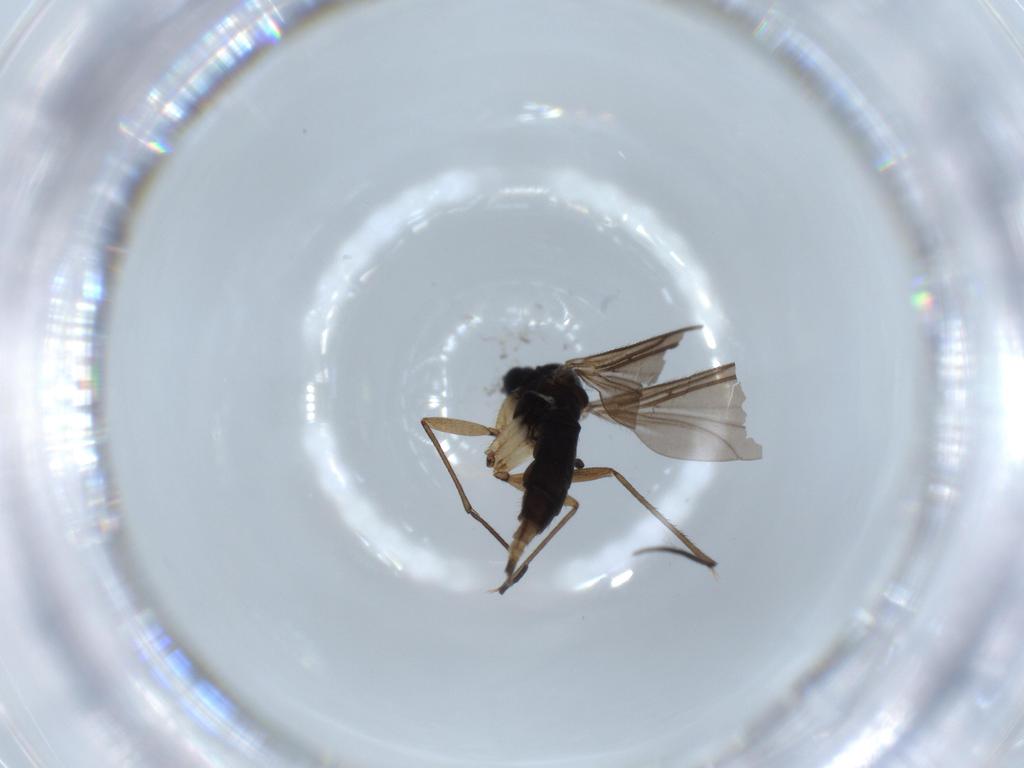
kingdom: Animalia
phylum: Arthropoda
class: Insecta
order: Diptera
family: Sciaridae
